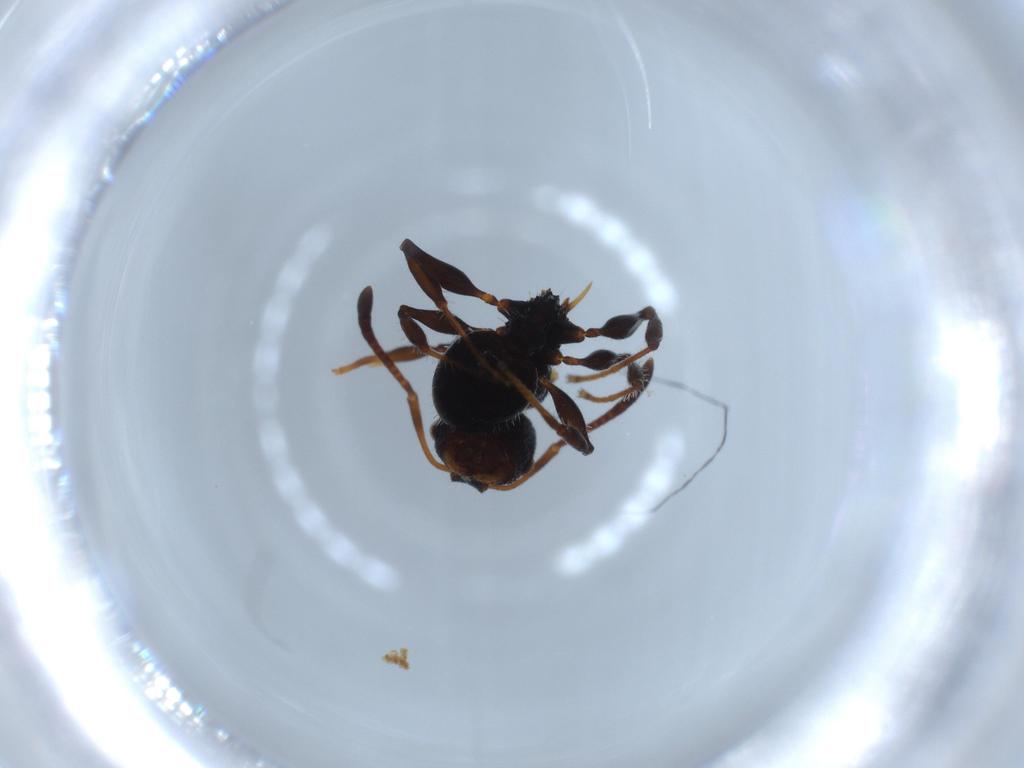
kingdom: Animalia
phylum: Arthropoda
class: Insecta
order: Hymenoptera
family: Formicidae
